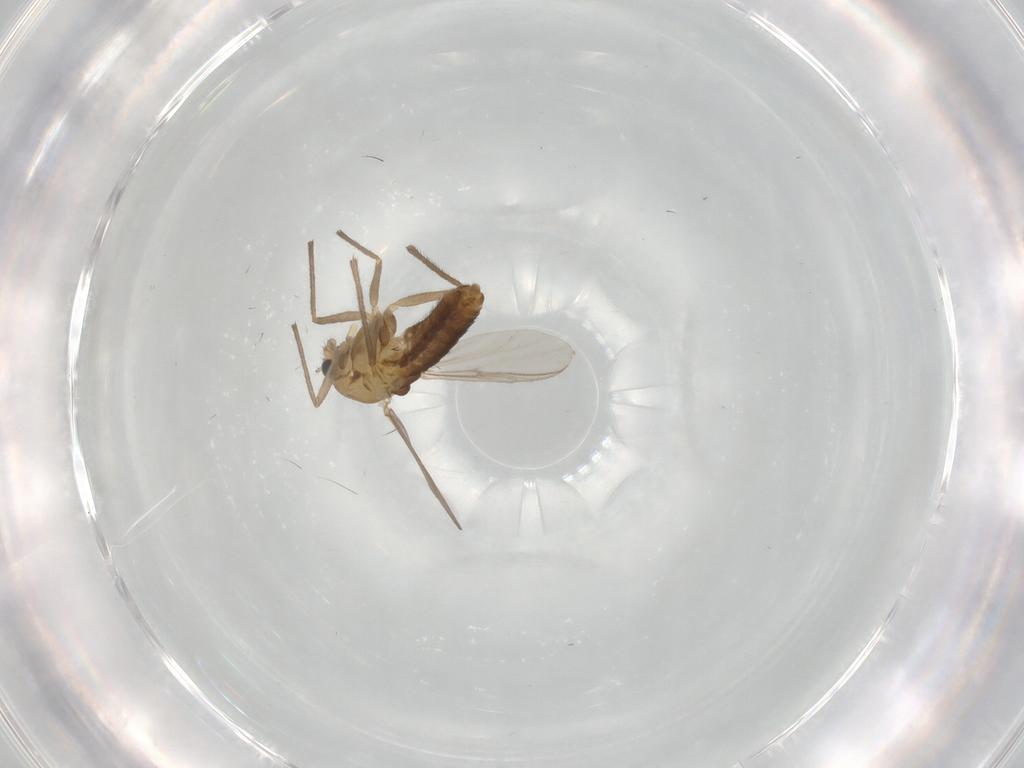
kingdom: Animalia
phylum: Arthropoda
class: Insecta
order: Diptera
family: Chironomidae
